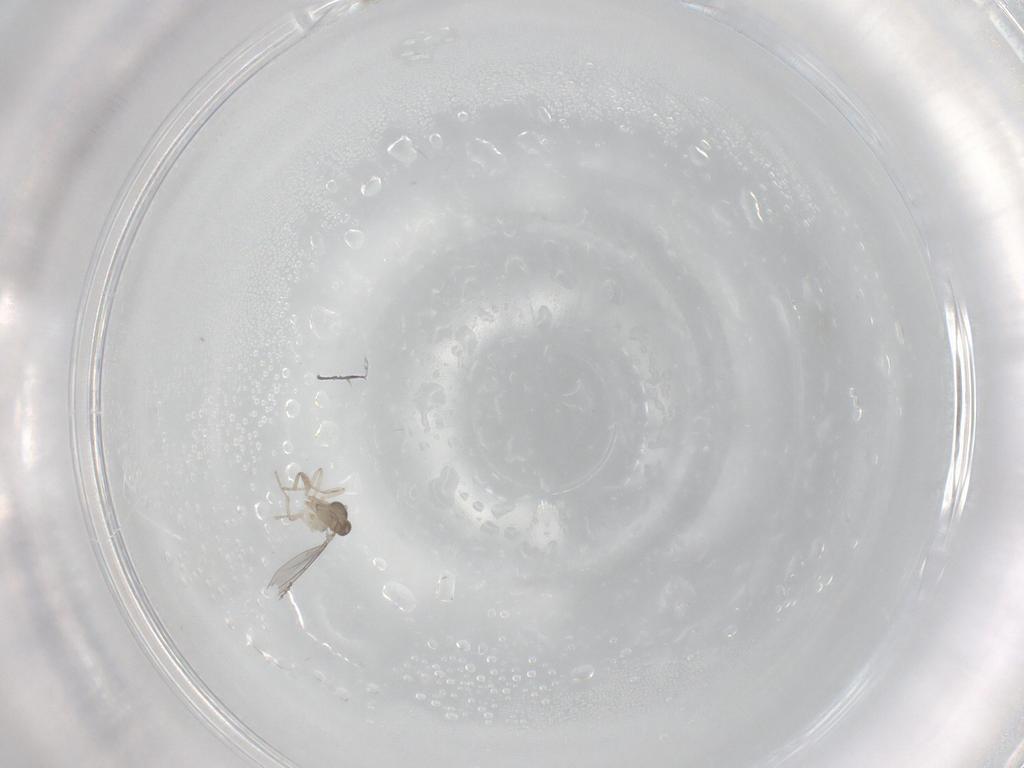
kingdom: Animalia
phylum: Arthropoda
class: Insecta
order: Diptera
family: Cecidomyiidae
